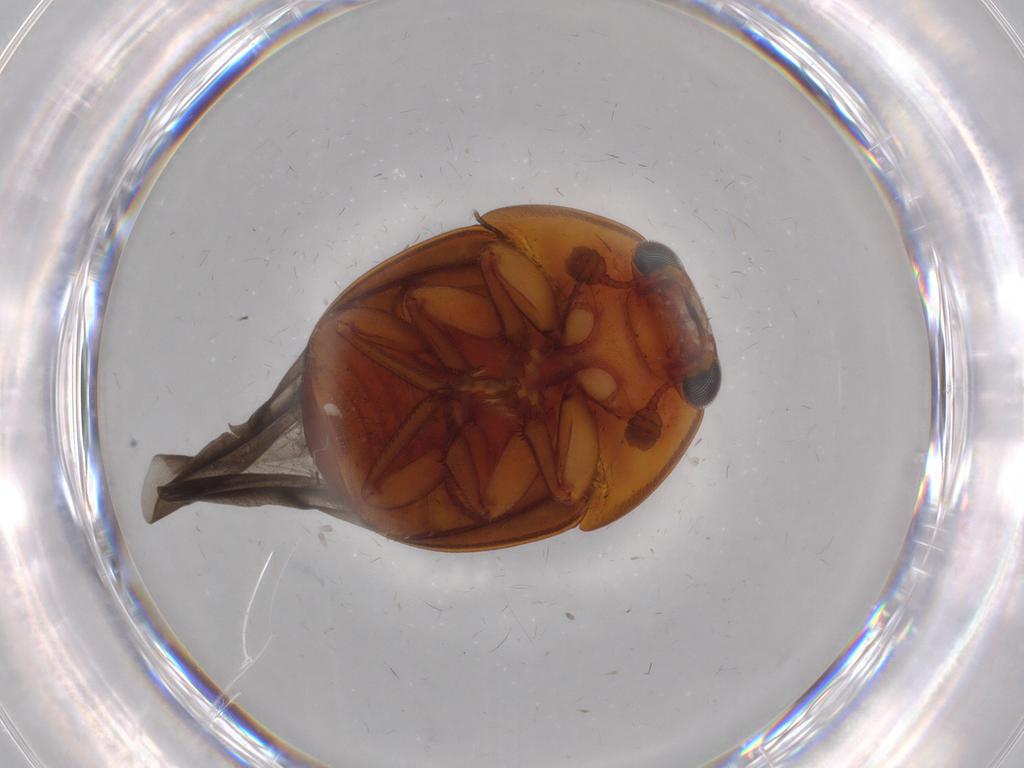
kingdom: Animalia
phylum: Arthropoda
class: Insecta
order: Coleoptera
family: Nitidulidae
